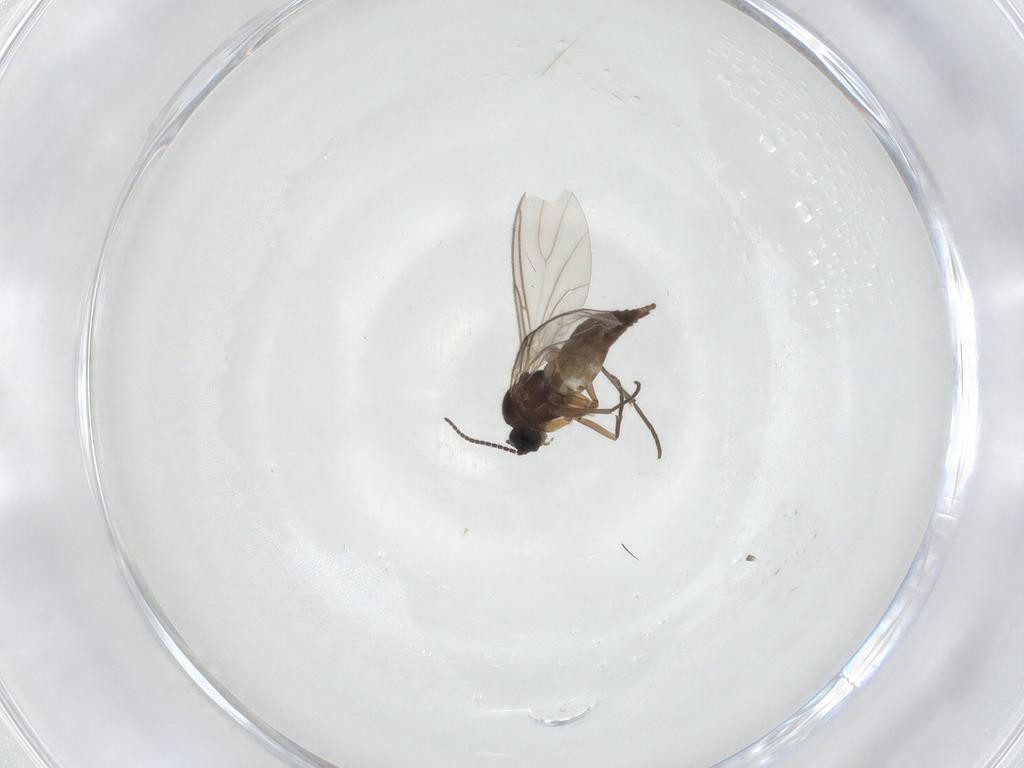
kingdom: Animalia
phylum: Arthropoda
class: Insecta
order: Diptera
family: Sciaridae
